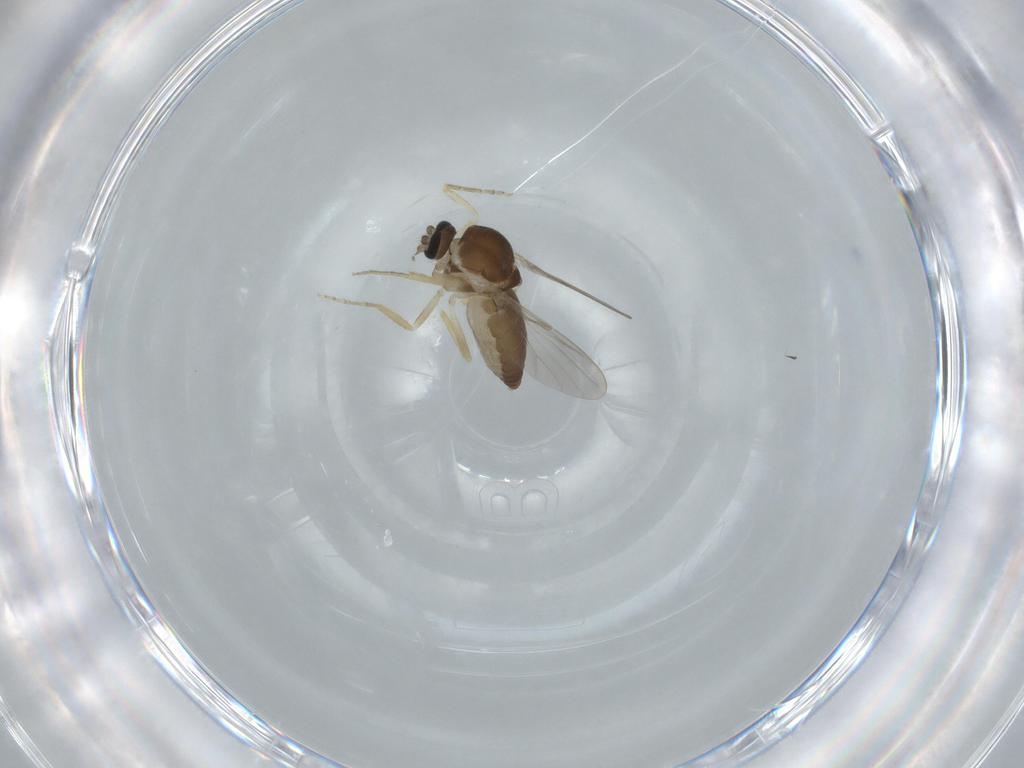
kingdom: Animalia
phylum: Arthropoda
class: Insecta
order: Diptera
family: Ceratopogonidae
